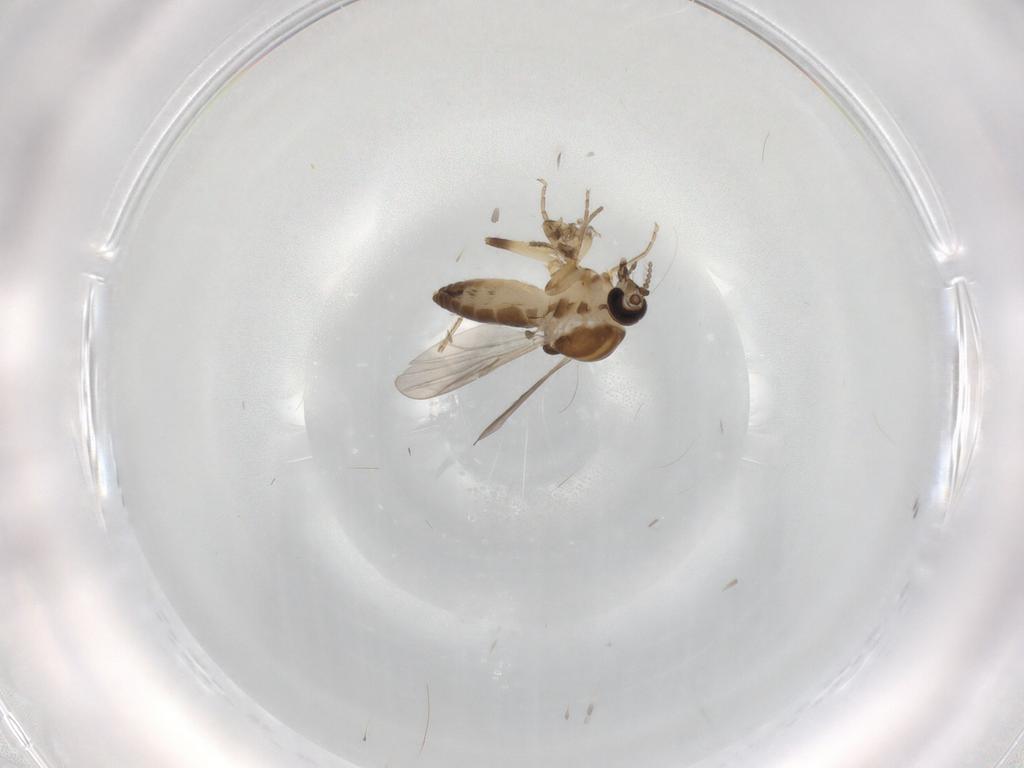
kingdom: Animalia
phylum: Arthropoda
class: Insecta
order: Diptera
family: Ceratopogonidae
